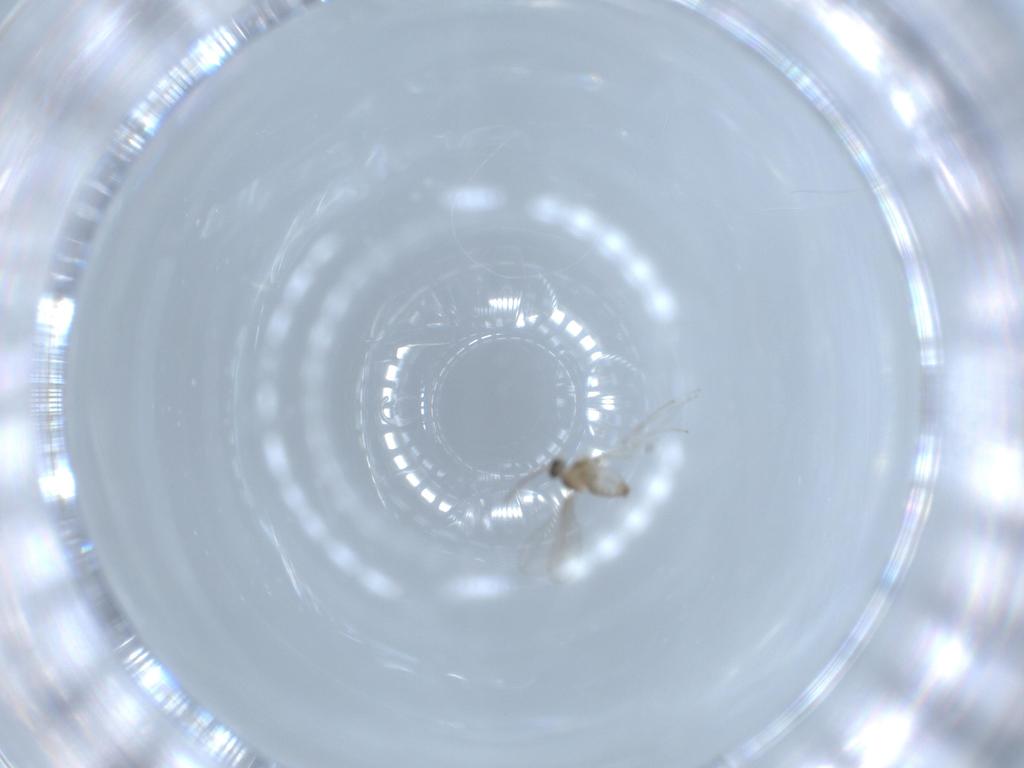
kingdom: Animalia
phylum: Arthropoda
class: Insecta
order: Diptera
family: Cecidomyiidae
